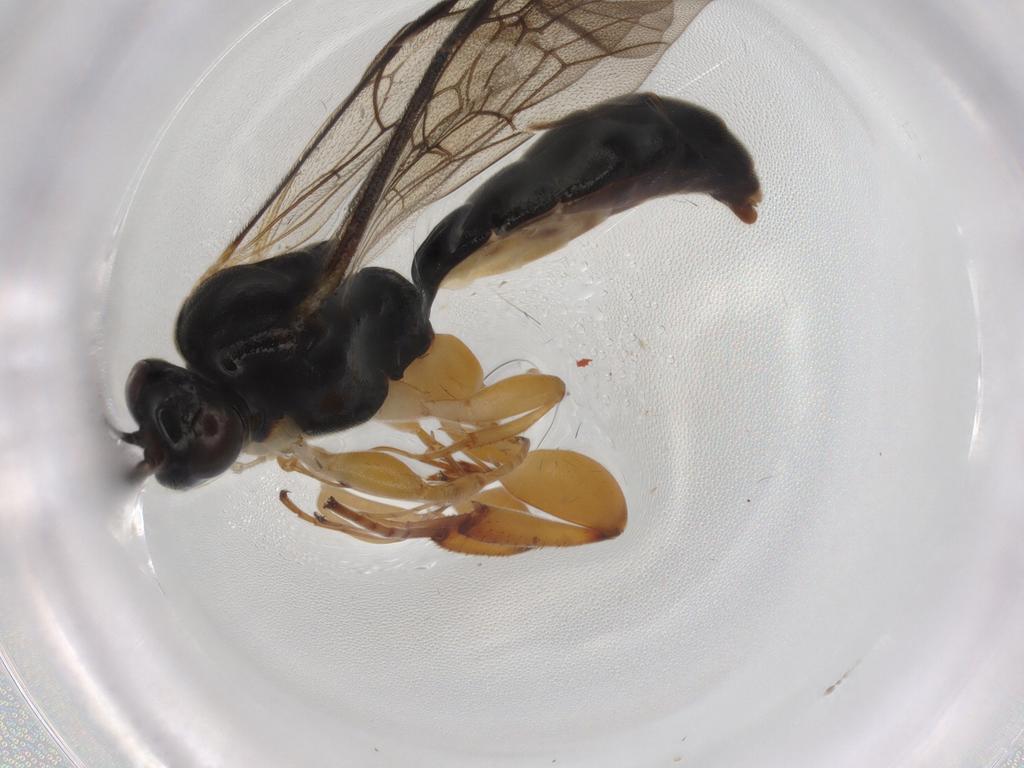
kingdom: Animalia
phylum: Arthropoda
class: Insecta
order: Hymenoptera
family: Ichneumonidae
